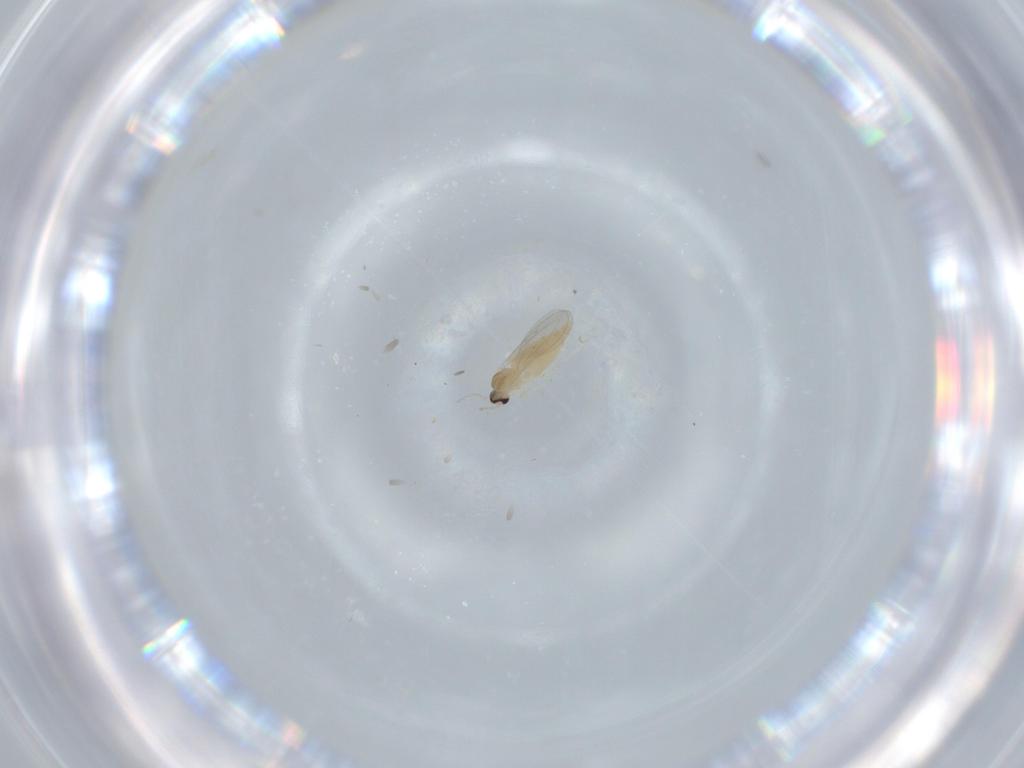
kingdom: Animalia
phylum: Arthropoda
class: Insecta
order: Diptera
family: Cecidomyiidae
